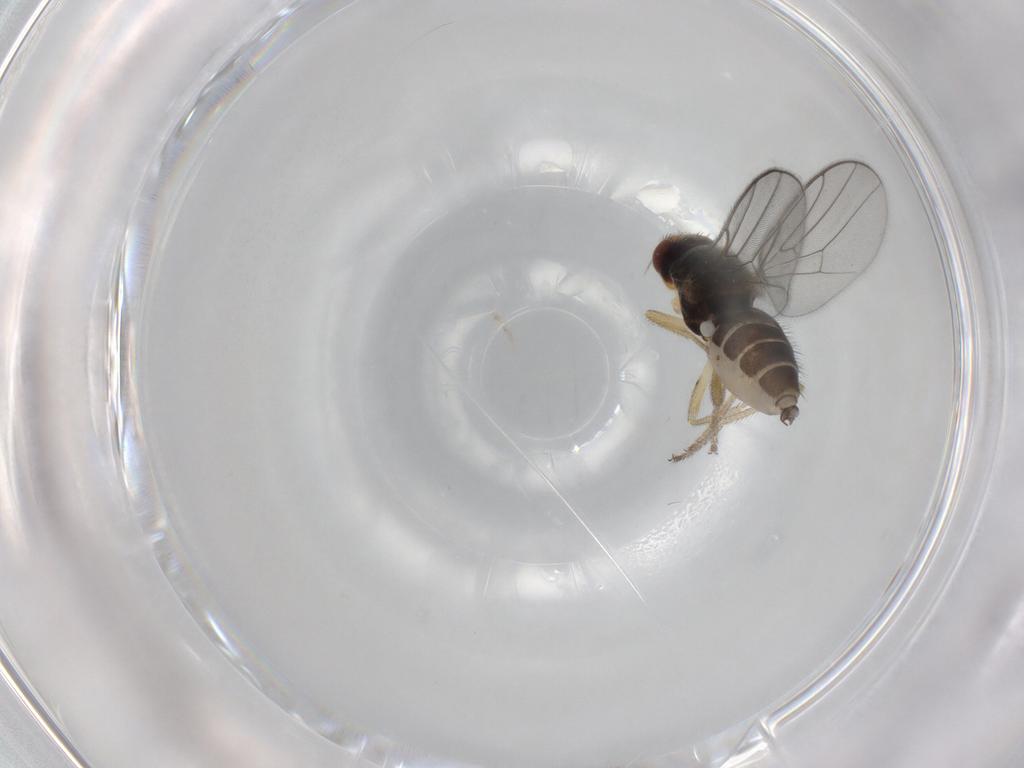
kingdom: Animalia
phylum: Arthropoda
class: Insecta
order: Diptera
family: Chloropidae
